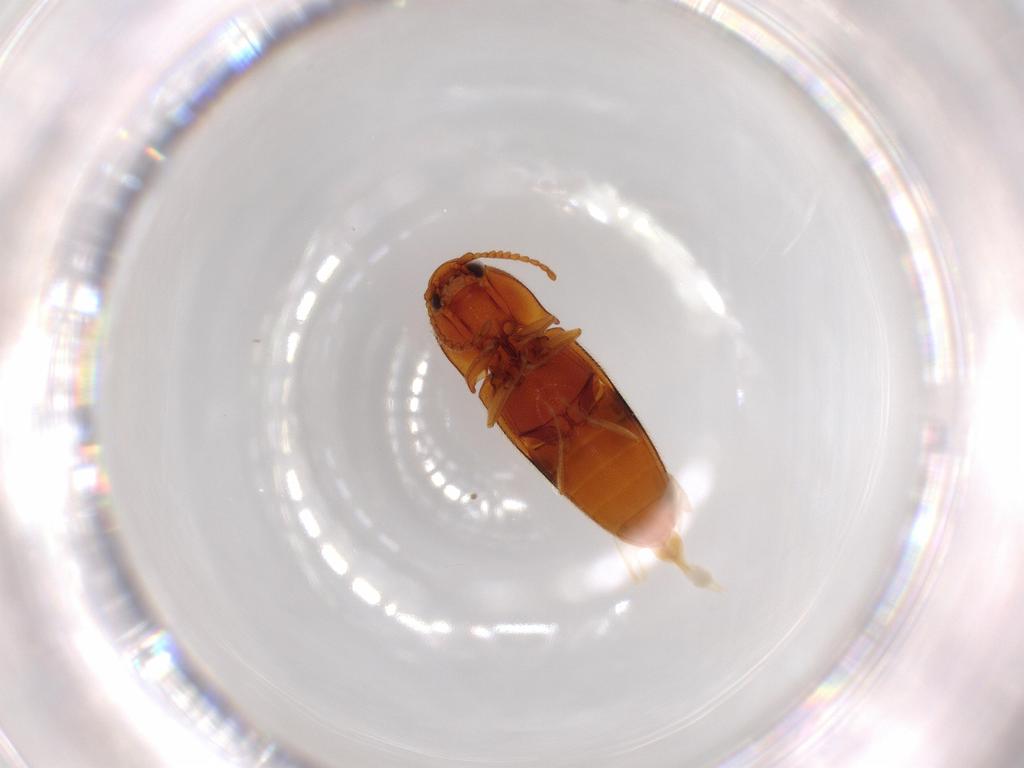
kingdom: Animalia
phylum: Arthropoda
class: Insecta
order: Coleoptera
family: Elateridae
